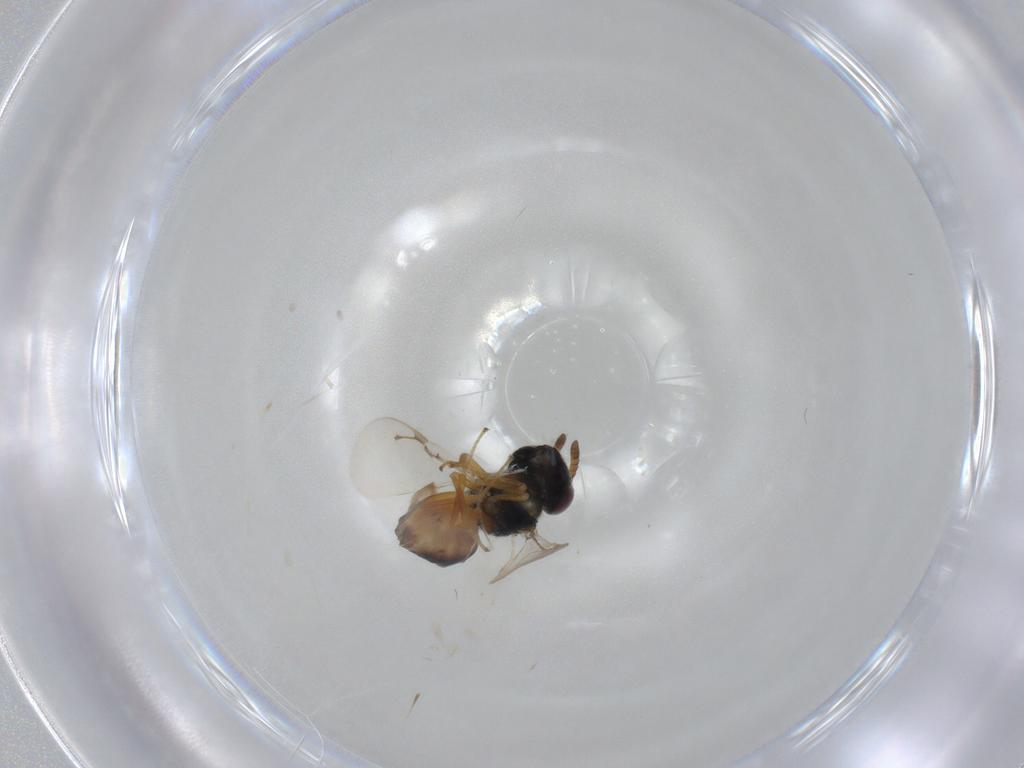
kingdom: Animalia
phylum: Arthropoda
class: Insecta
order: Hymenoptera
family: Pteromalidae
